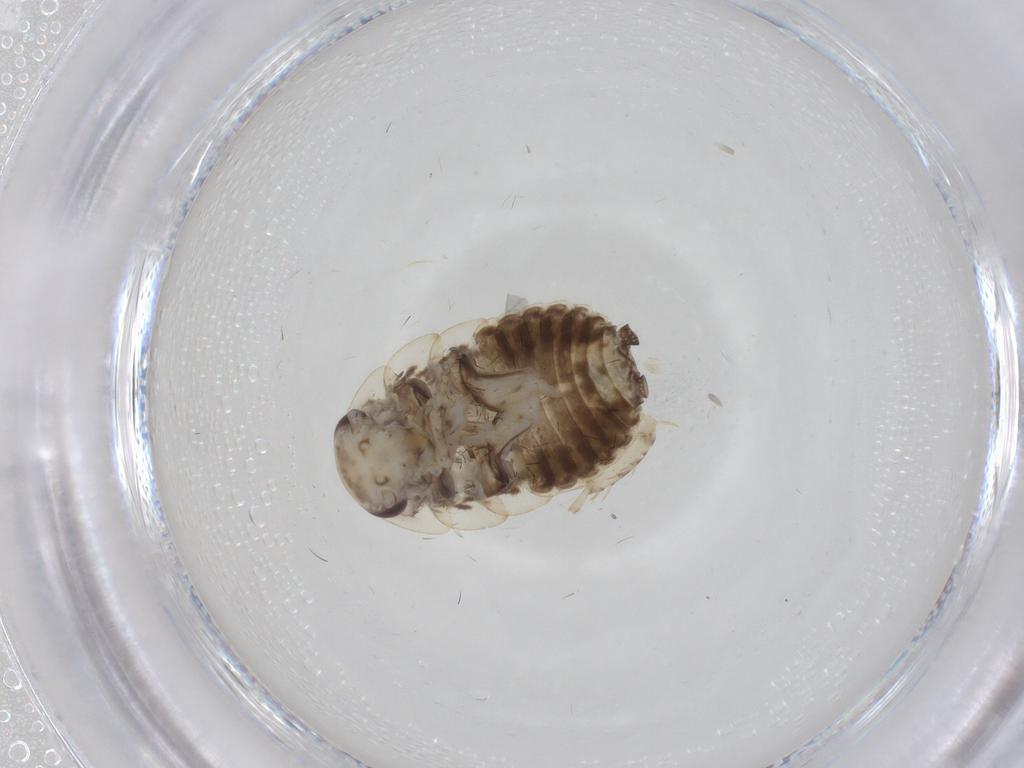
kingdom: Animalia
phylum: Arthropoda
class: Insecta
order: Blattodea
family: Ectobiidae
